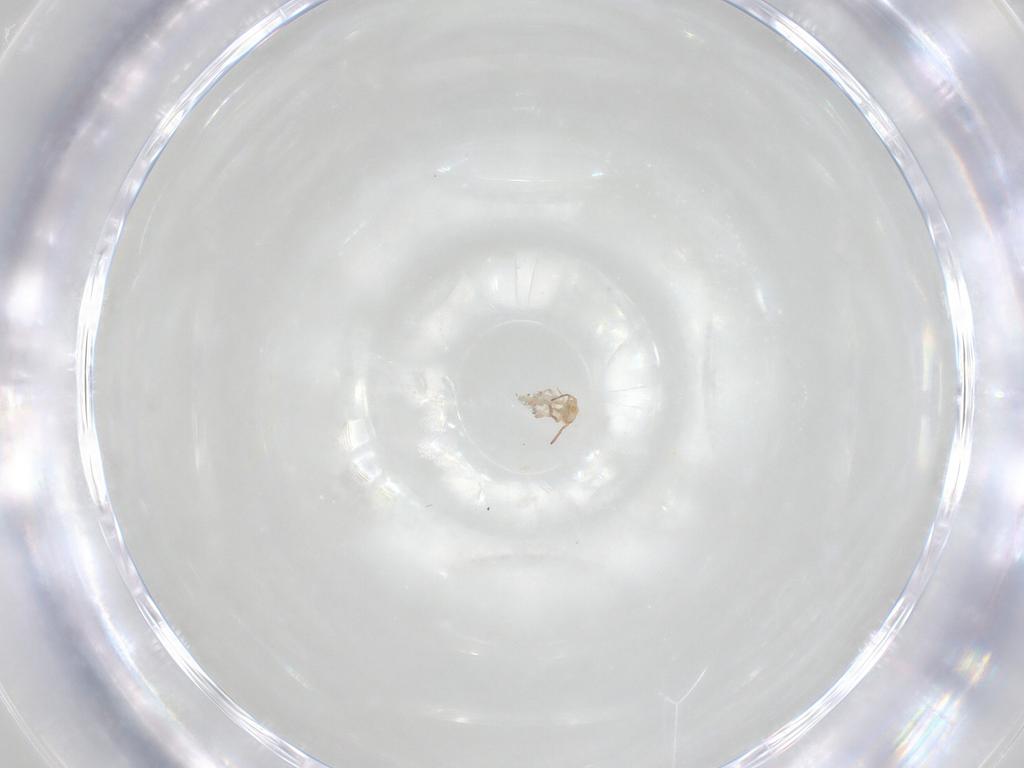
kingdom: Animalia
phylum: Arthropoda
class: Collembola
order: Symphypleona
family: Bourletiellidae
